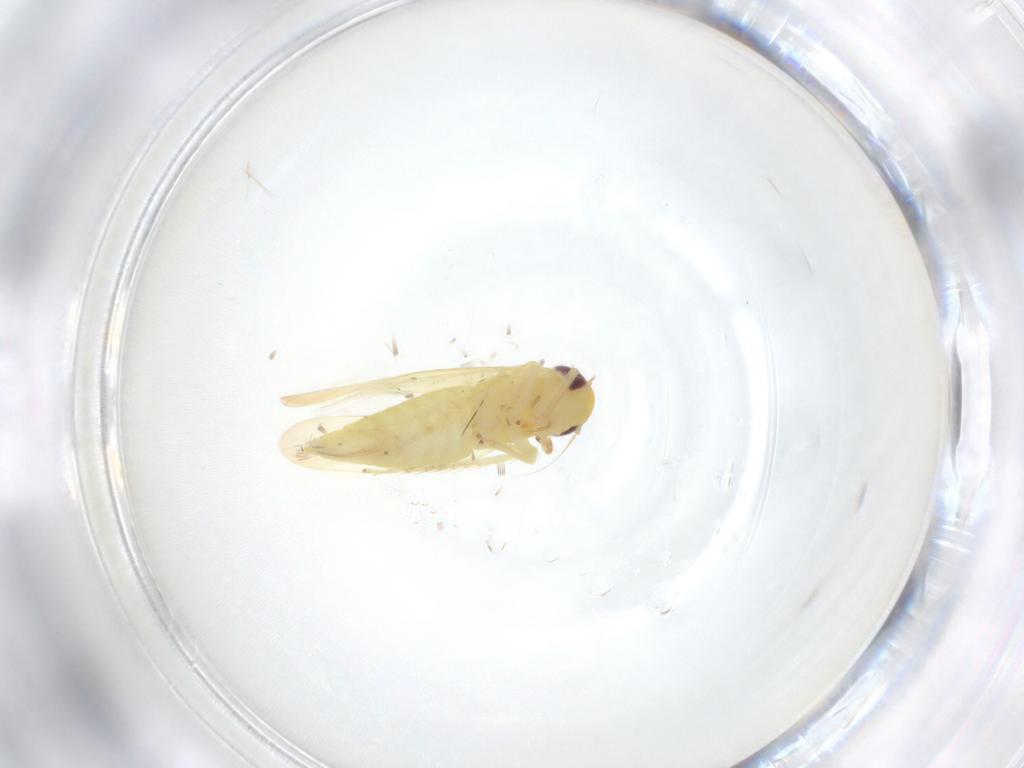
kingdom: Animalia
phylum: Arthropoda
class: Insecta
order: Hemiptera
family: Cicadellidae
